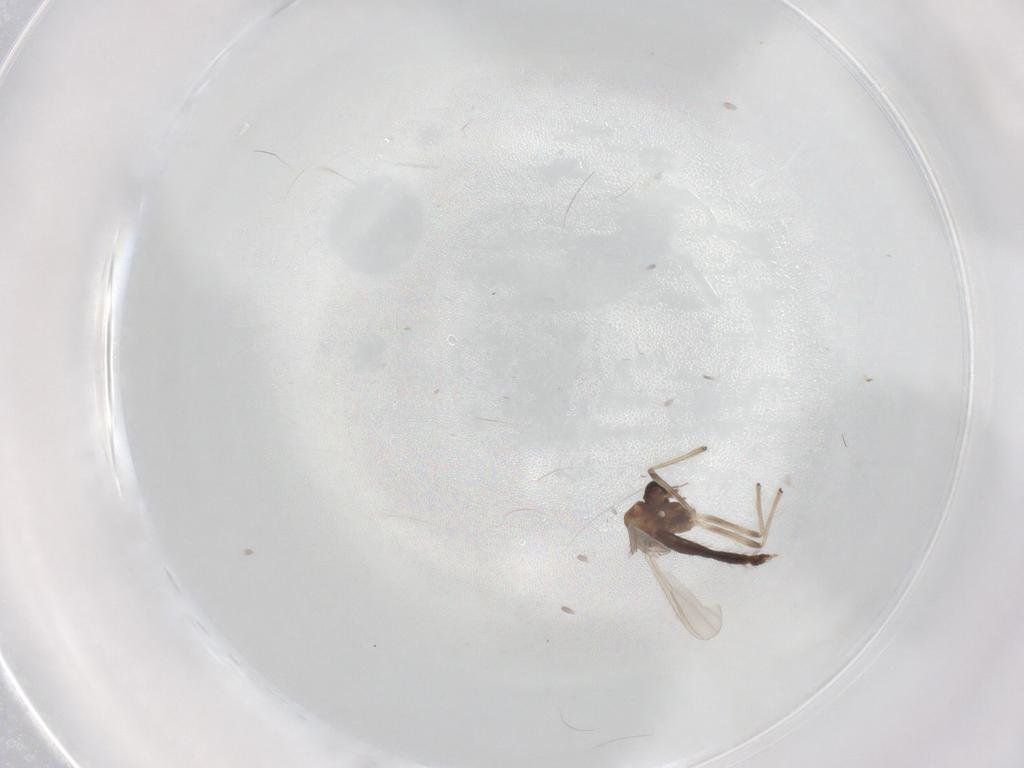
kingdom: Animalia
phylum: Arthropoda
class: Insecta
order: Diptera
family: Chironomidae
